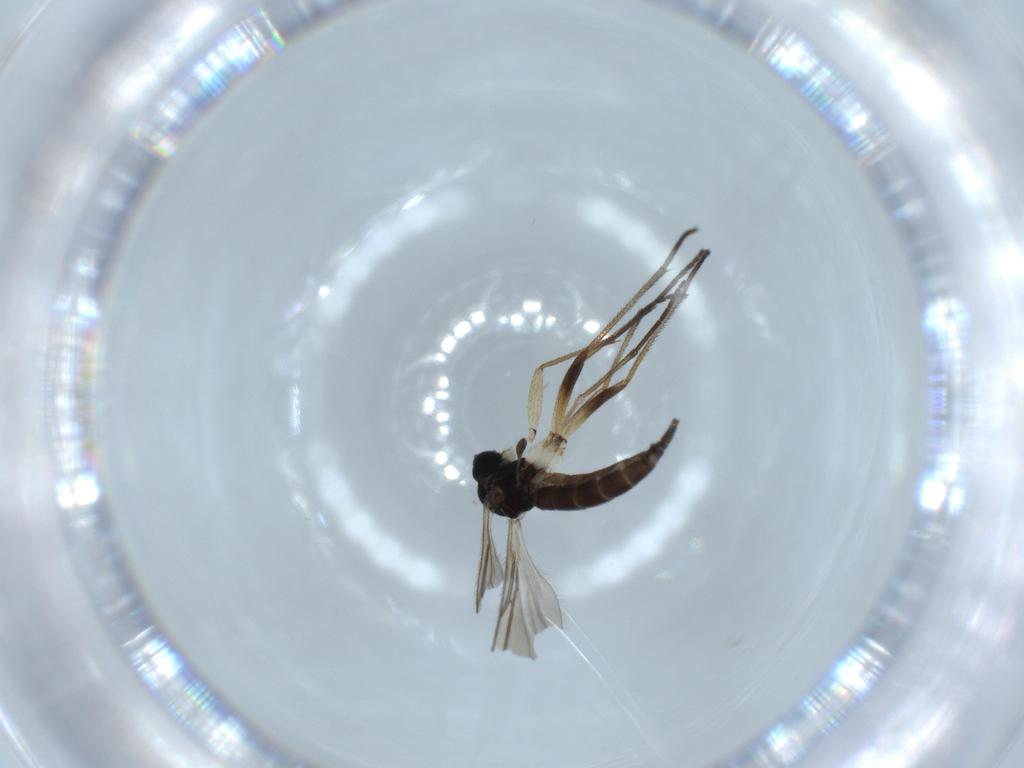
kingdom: Animalia
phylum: Arthropoda
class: Insecta
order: Diptera
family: Sciaridae
